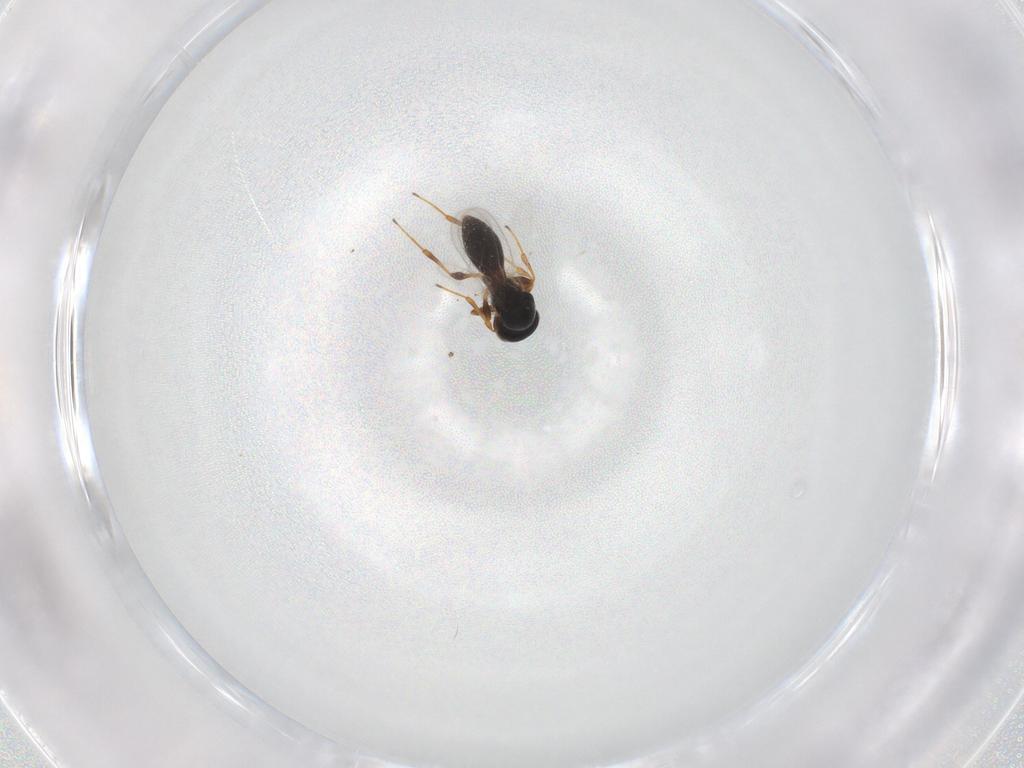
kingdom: Animalia
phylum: Arthropoda
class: Insecta
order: Hymenoptera
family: Platygastridae
